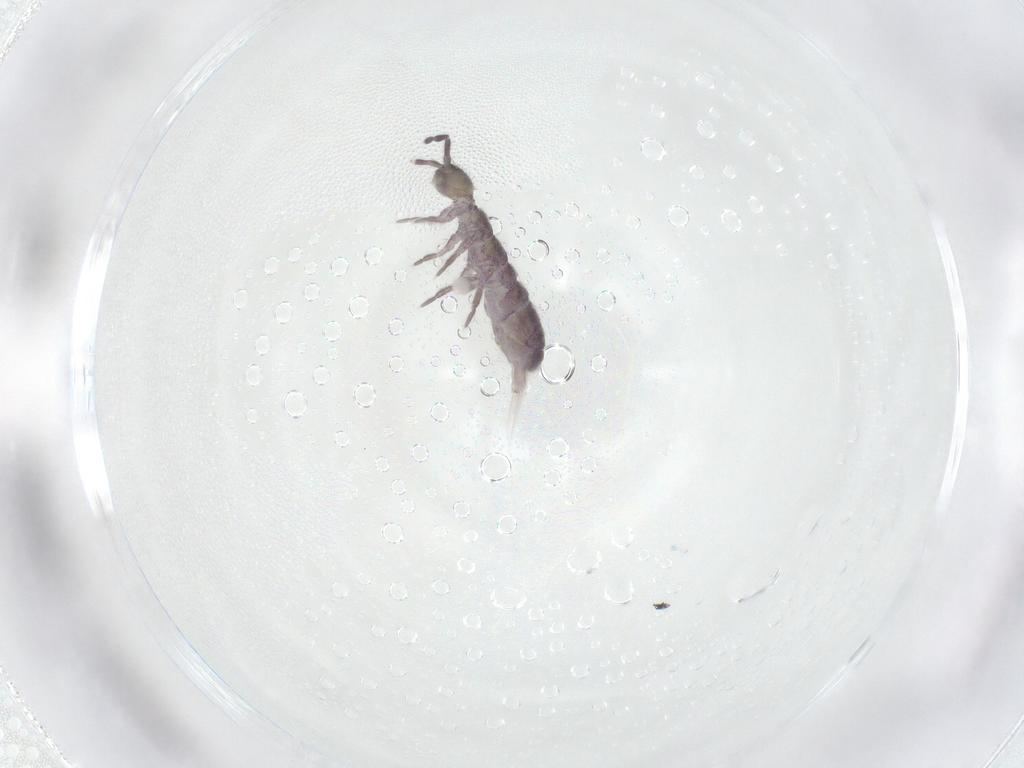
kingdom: Animalia
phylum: Arthropoda
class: Collembola
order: Entomobryomorpha
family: Isotomidae
